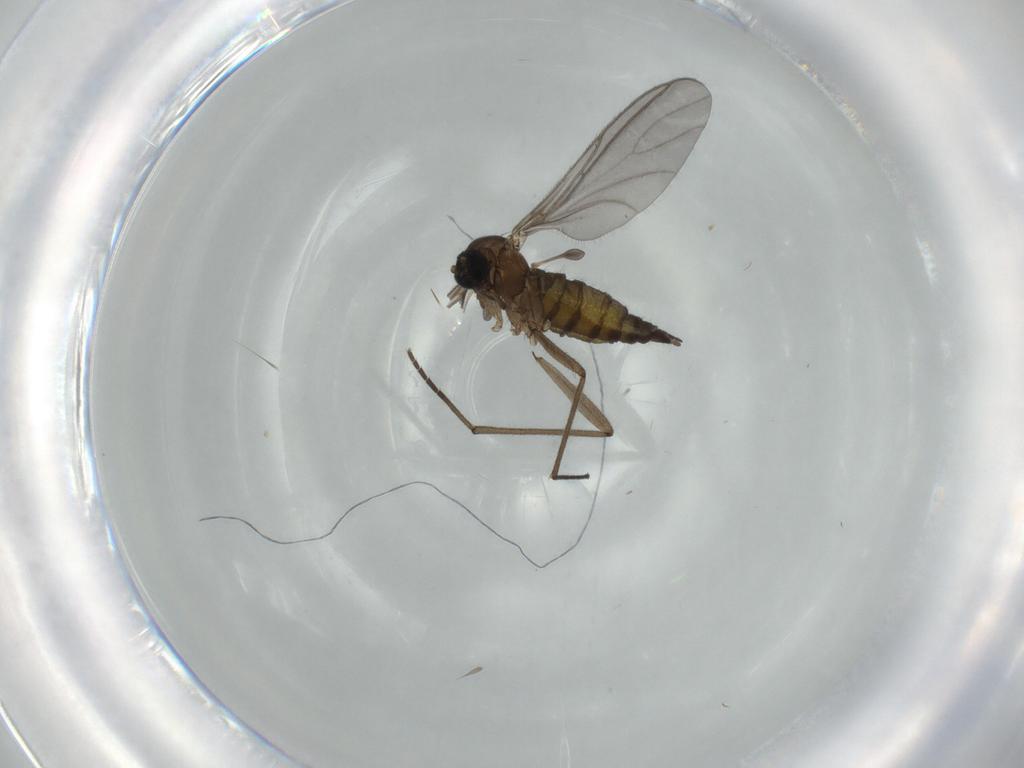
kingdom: Animalia
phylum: Arthropoda
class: Insecta
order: Diptera
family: Sciaridae
